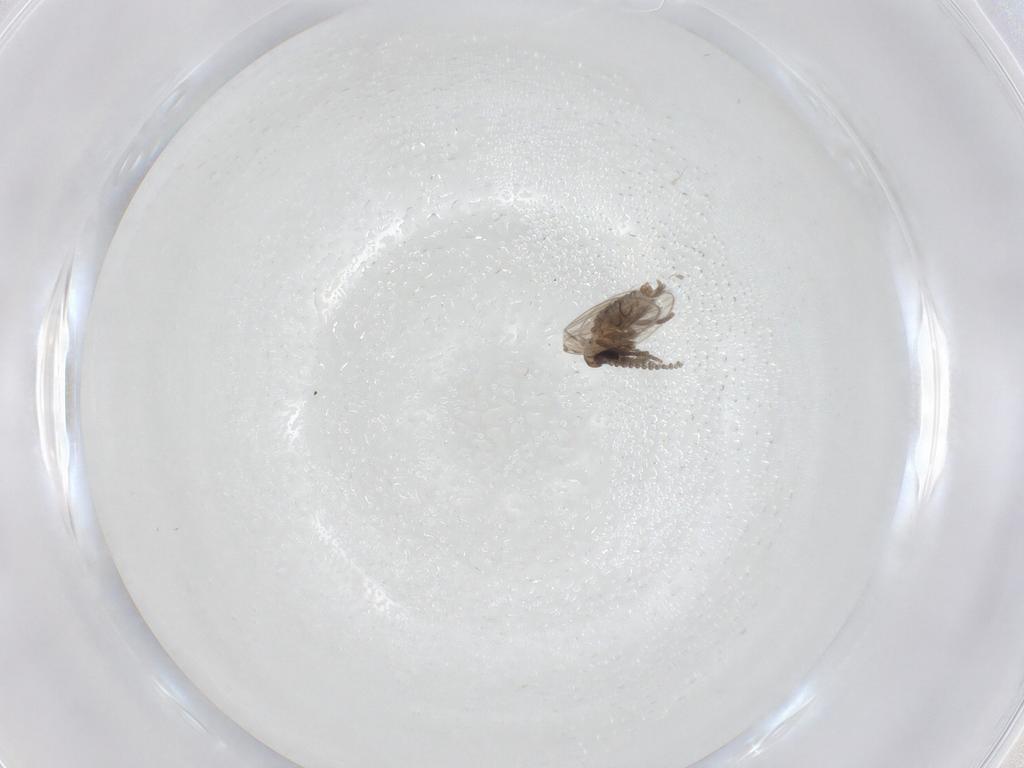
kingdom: Animalia
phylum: Arthropoda
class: Insecta
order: Diptera
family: Psychodidae
